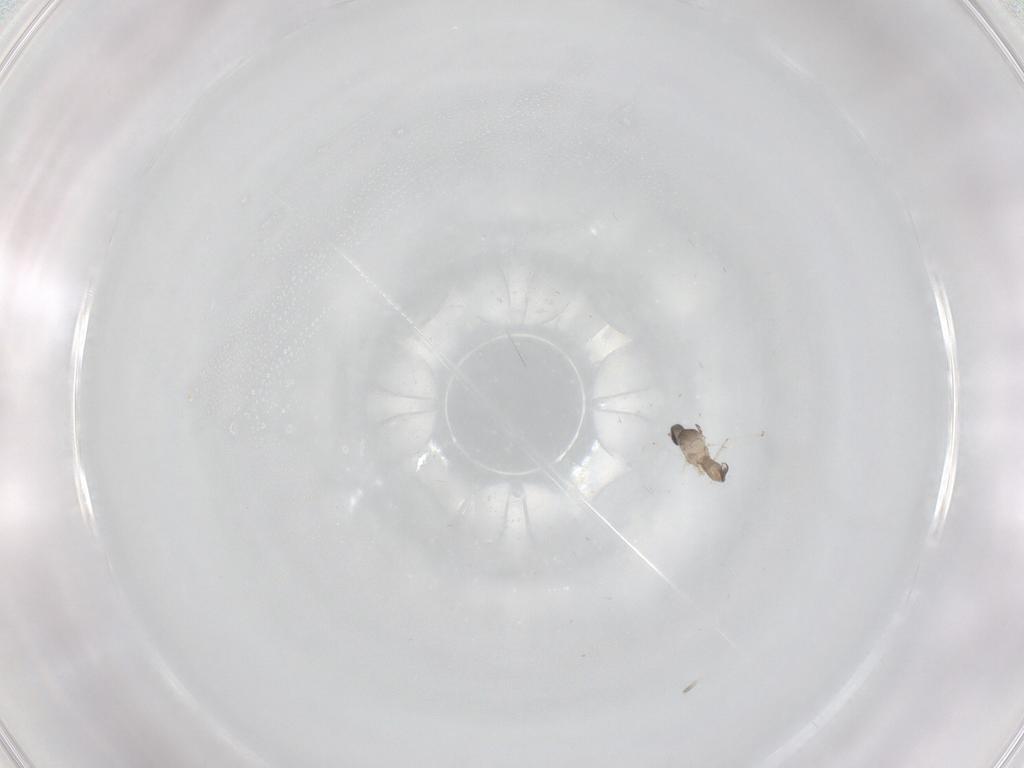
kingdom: Animalia
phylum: Arthropoda
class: Insecta
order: Diptera
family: Cecidomyiidae
